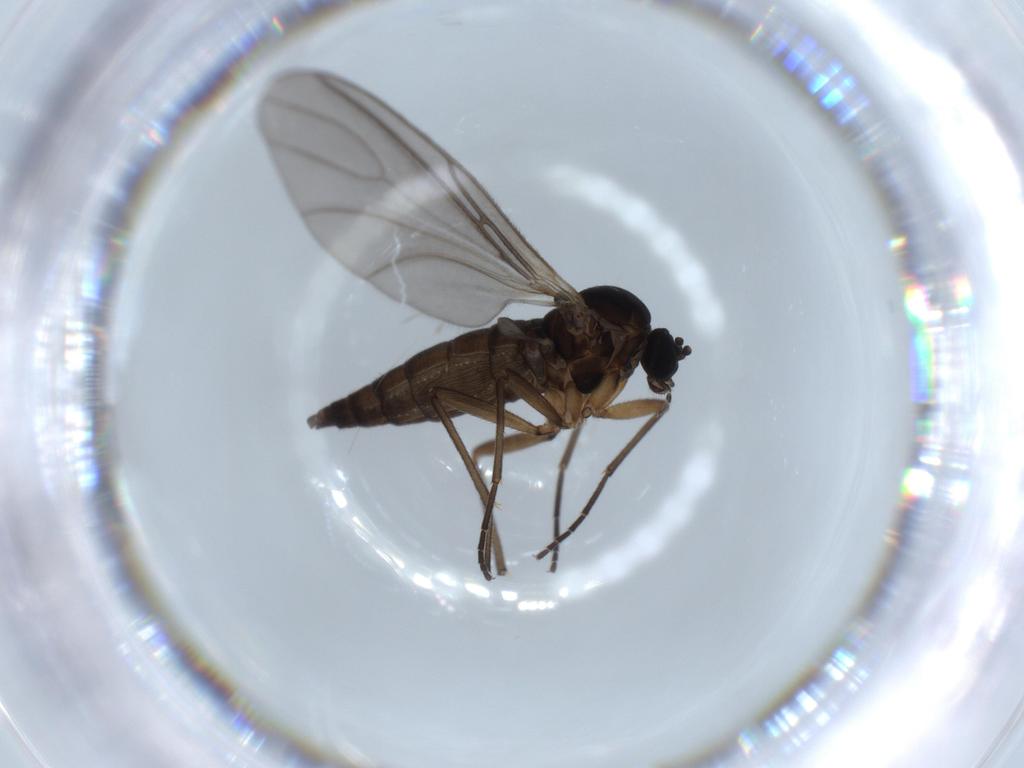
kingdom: Animalia
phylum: Arthropoda
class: Insecta
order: Diptera
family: Sciaridae
